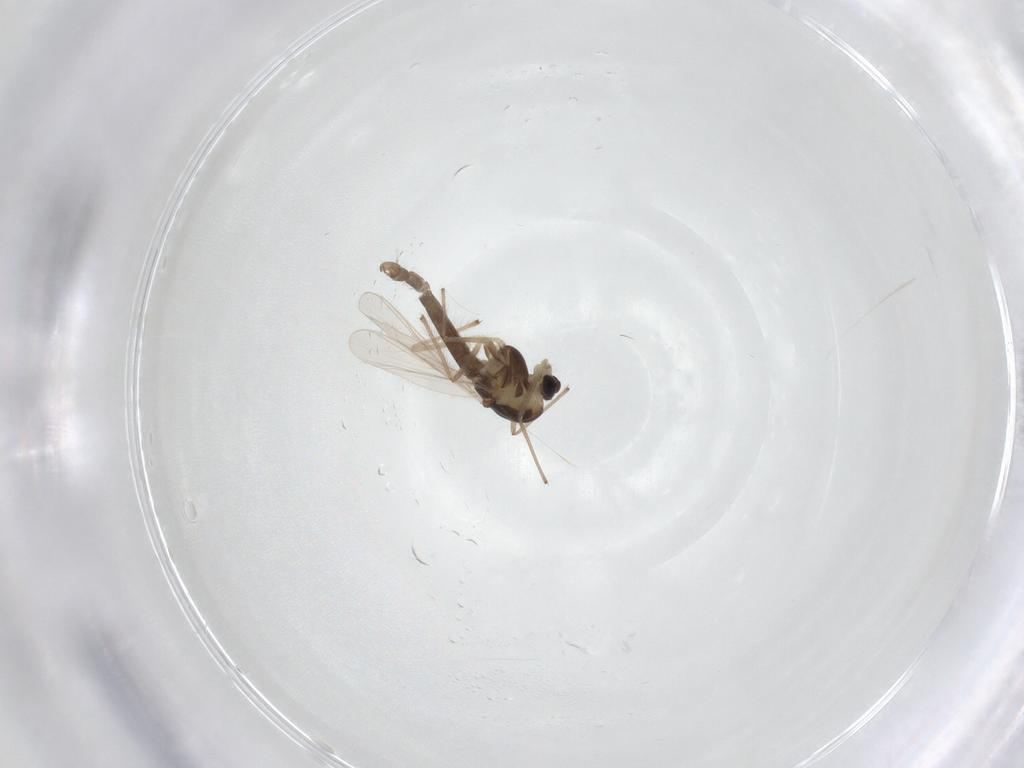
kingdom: Animalia
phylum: Arthropoda
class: Insecta
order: Diptera
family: Chironomidae
